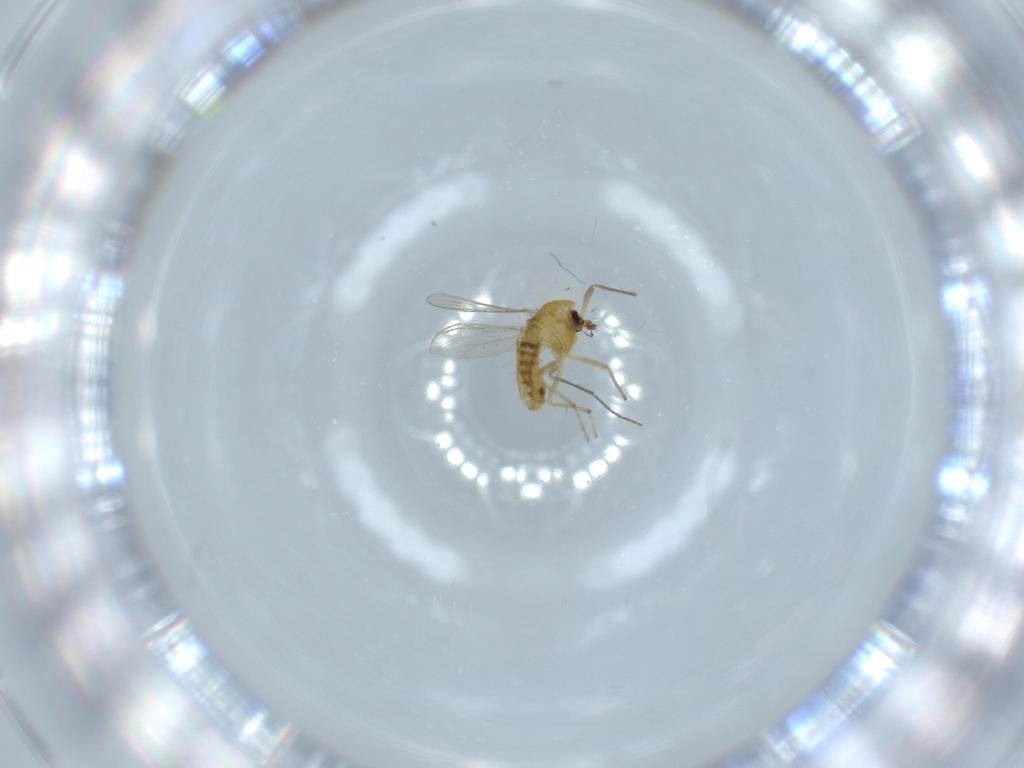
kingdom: Animalia
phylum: Arthropoda
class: Insecta
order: Diptera
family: Chironomidae
